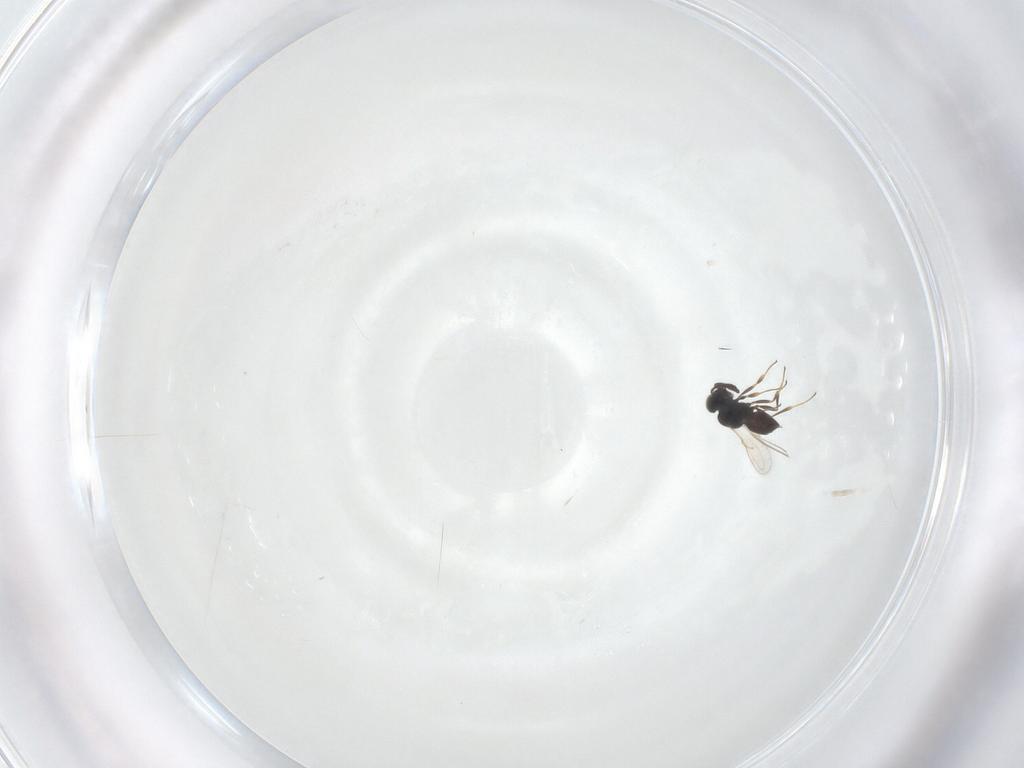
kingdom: Animalia
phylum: Arthropoda
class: Insecta
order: Hymenoptera
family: Scelionidae
